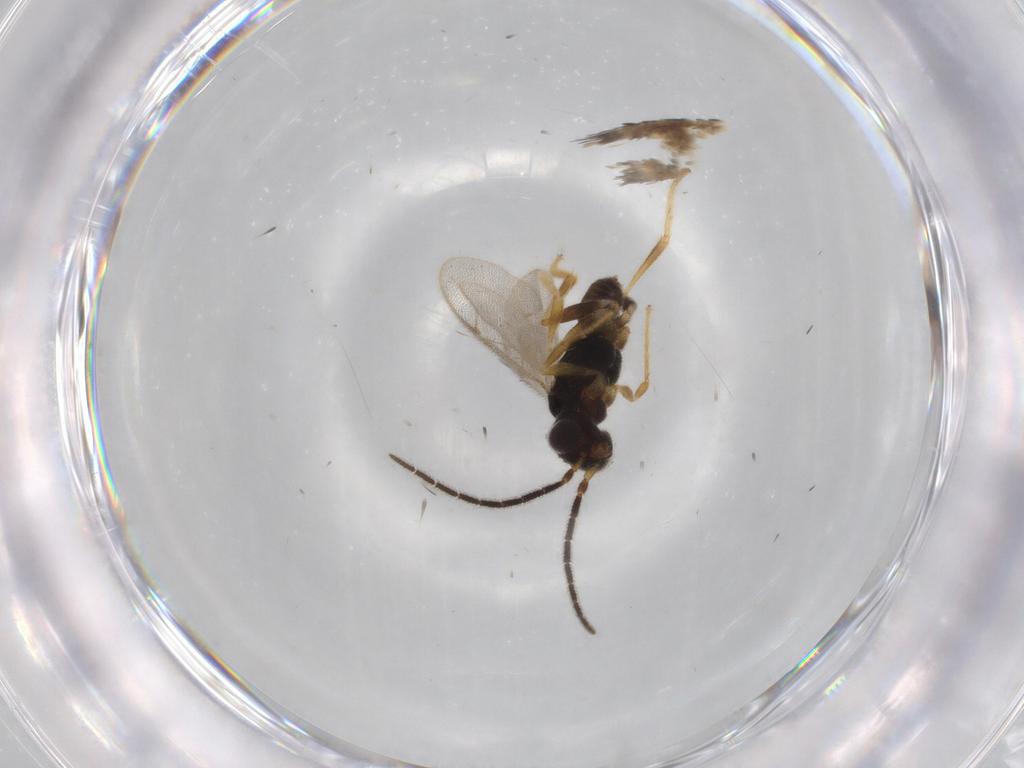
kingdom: Animalia
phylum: Arthropoda
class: Insecta
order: Hymenoptera
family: Dryinidae
